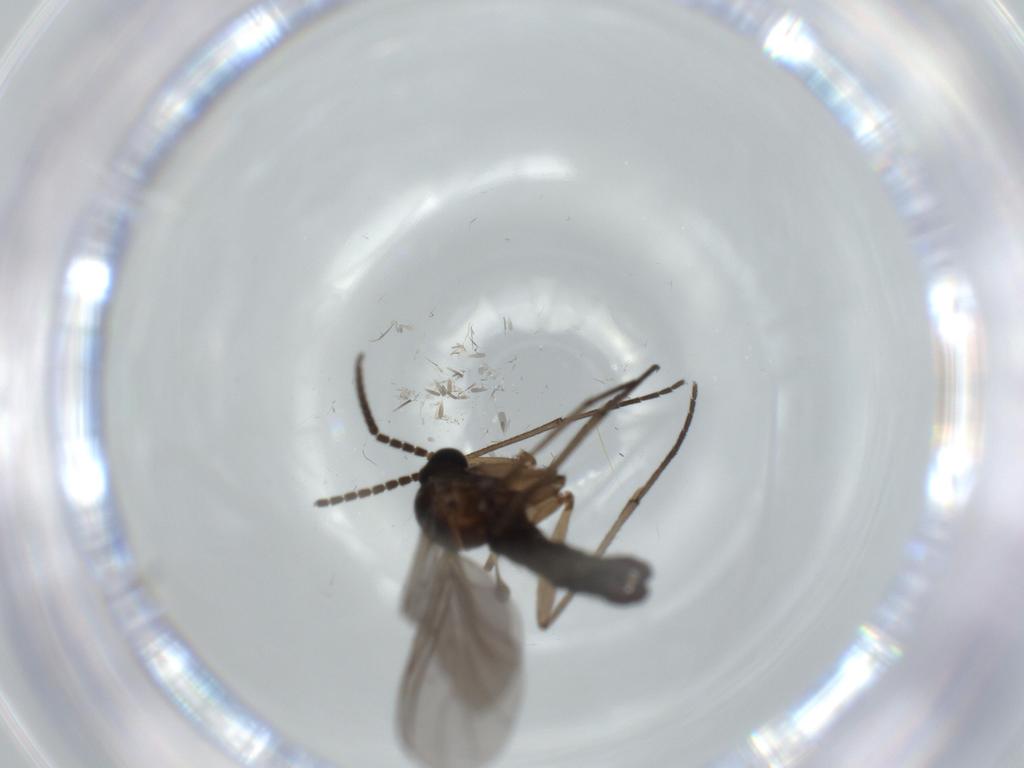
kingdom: Animalia
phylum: Arthropoda
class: Insecta
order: Diptera
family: Sciaridae
